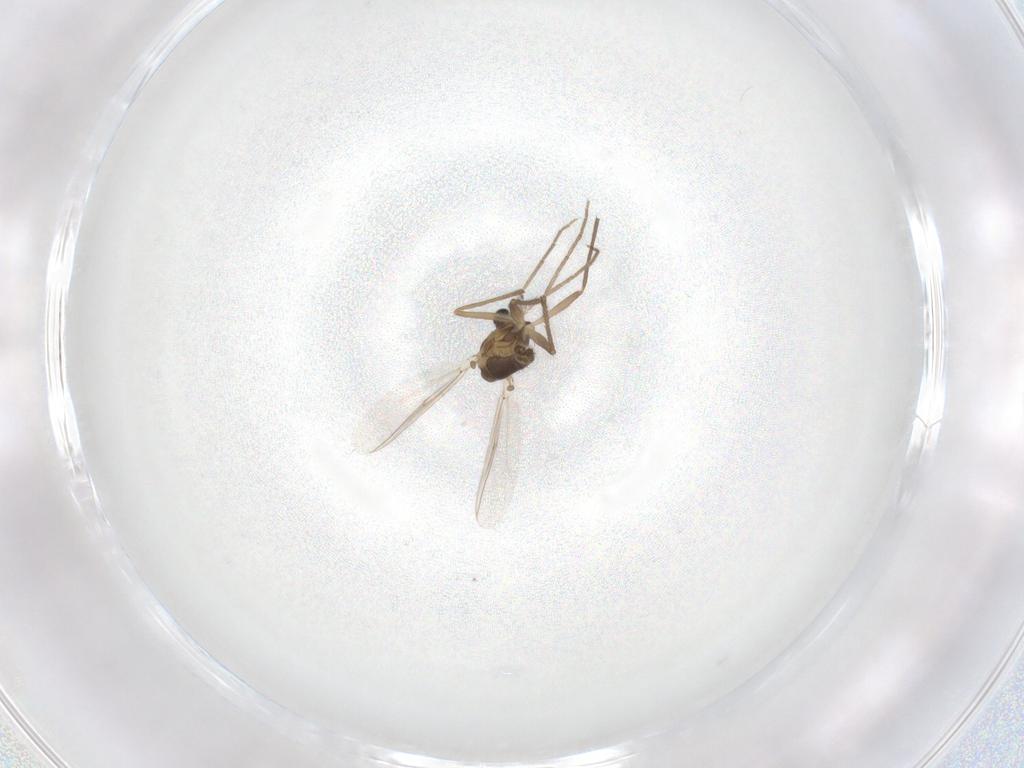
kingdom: Animalia
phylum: Arthropoda
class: Insecta
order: Diptera
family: Chironomidae
